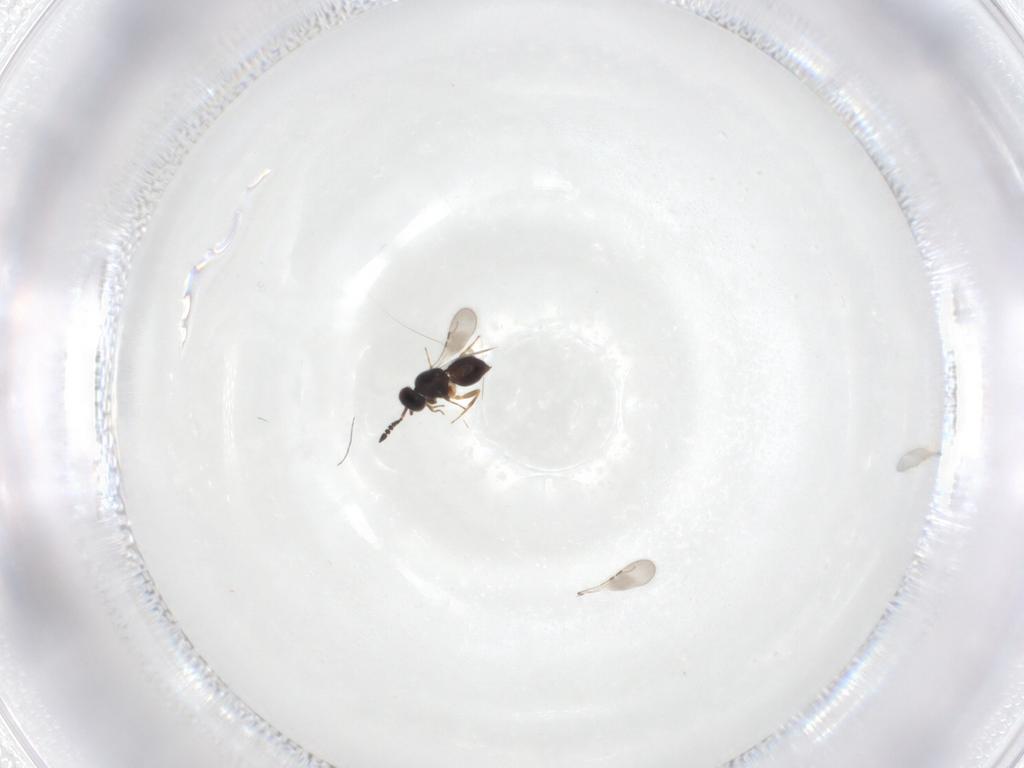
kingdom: Animalia
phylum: Arthropoda
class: Insecta
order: Hymenoptera
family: Ceraphronidae
